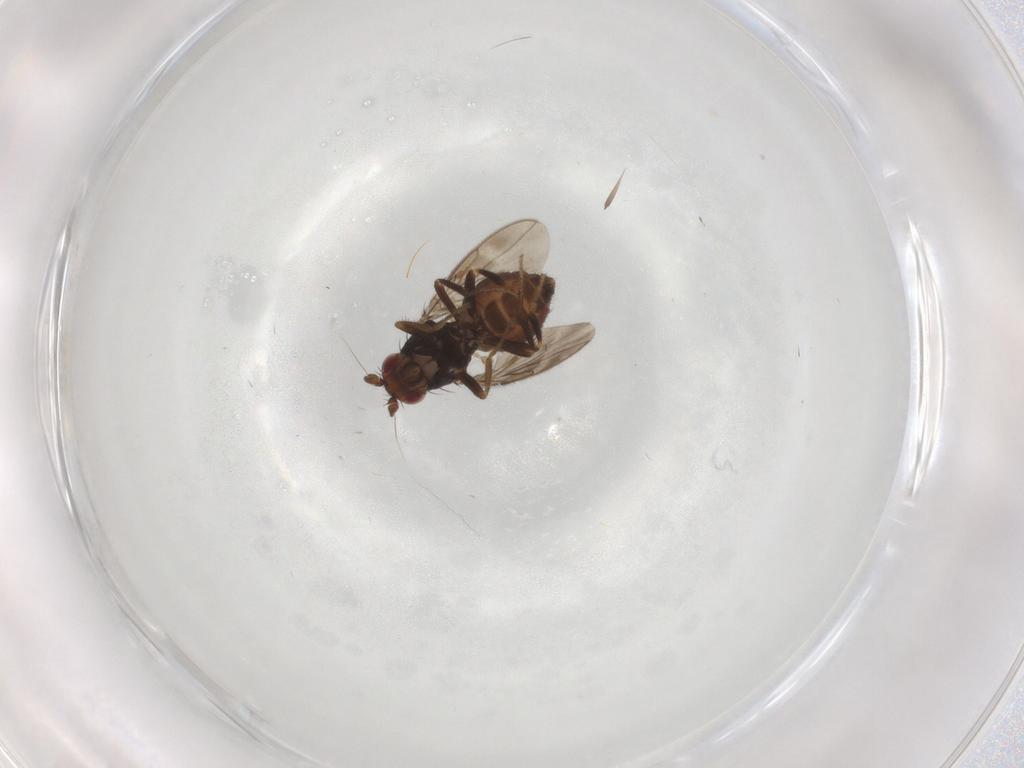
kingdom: Animalia
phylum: Arthropoda
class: Insecta
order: Diptera
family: Sphaeroceridae
